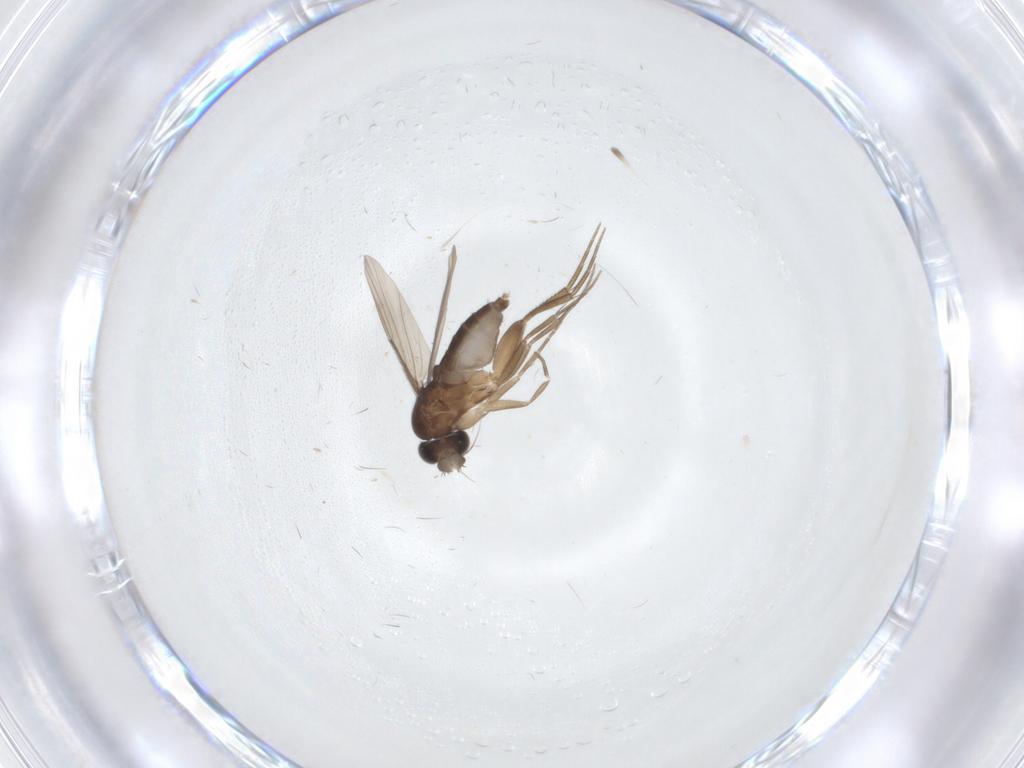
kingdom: Animalia
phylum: Arthropoda
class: Insecta
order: Diptera
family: Phoridae
